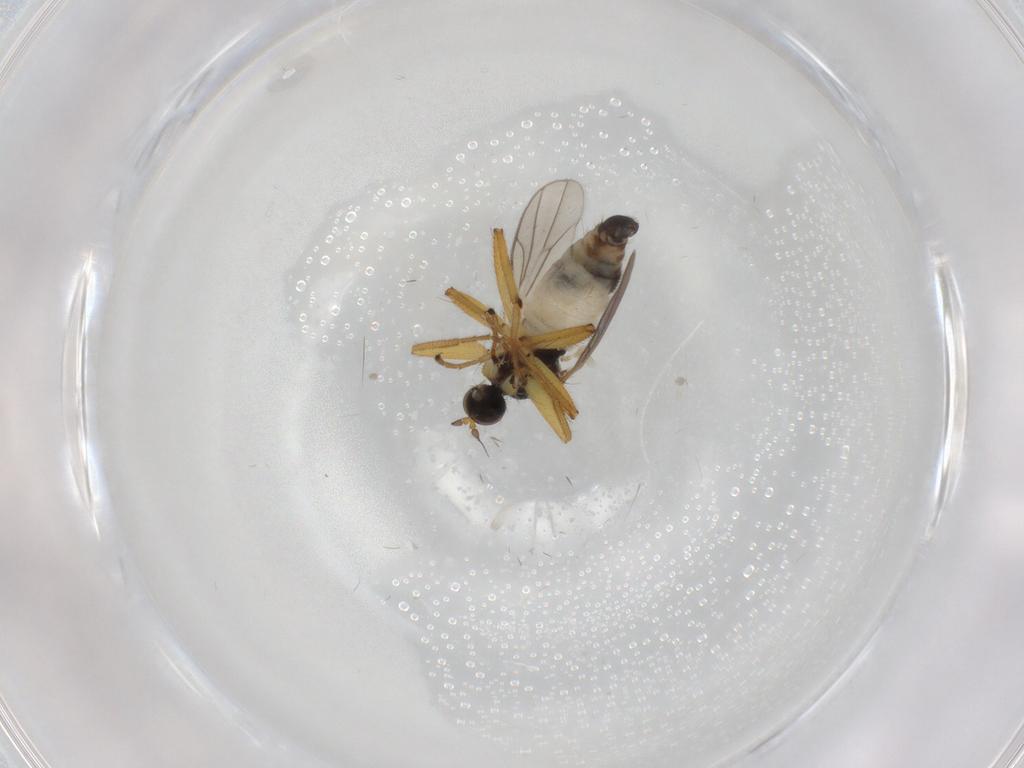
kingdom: Animalia
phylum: Arthropoda
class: Insecta
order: Diptera
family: Hybotidae
